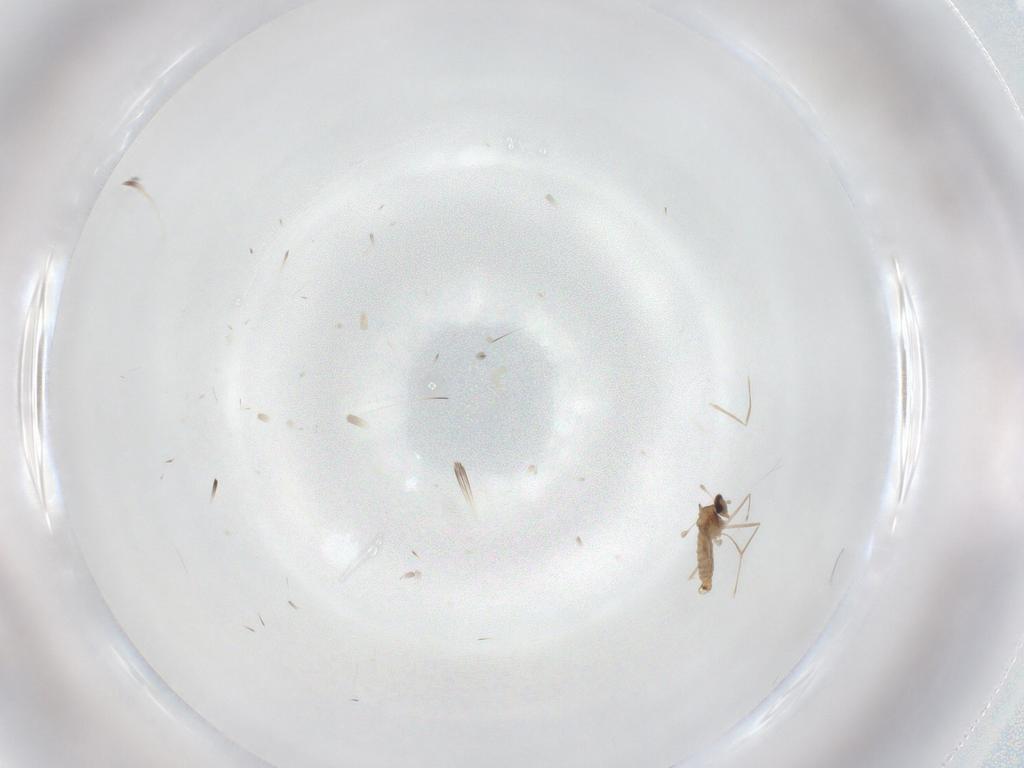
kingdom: Animalia
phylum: Arthropoda
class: Insecta
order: Diptera
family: Cecidomyiidae
